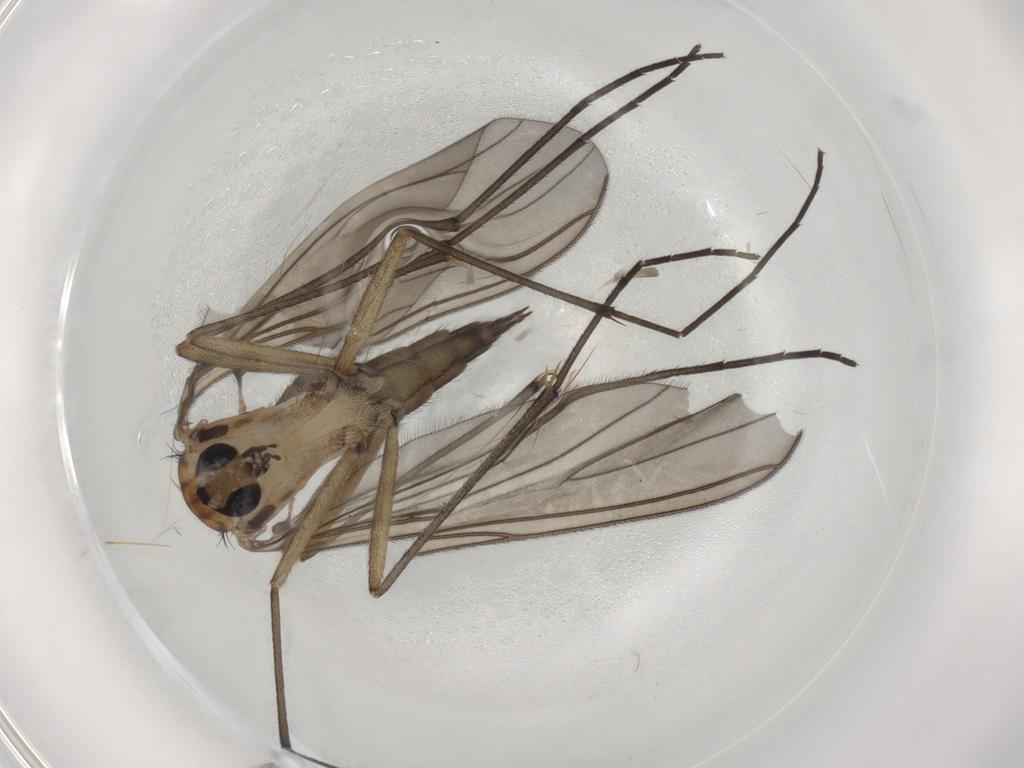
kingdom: Animalia
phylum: Arthropoda
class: Insecta
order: Diptera
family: Sciaridae
